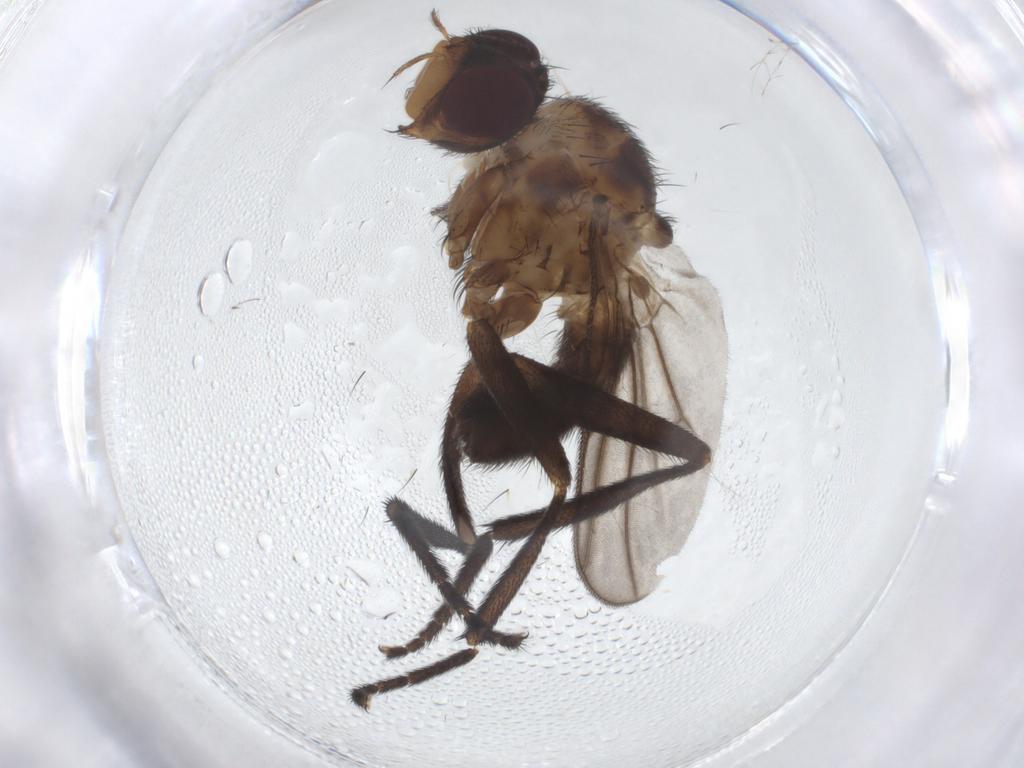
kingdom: Animalia
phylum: Arthropoda
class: Insecta
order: Diptera
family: Calliphoridae
